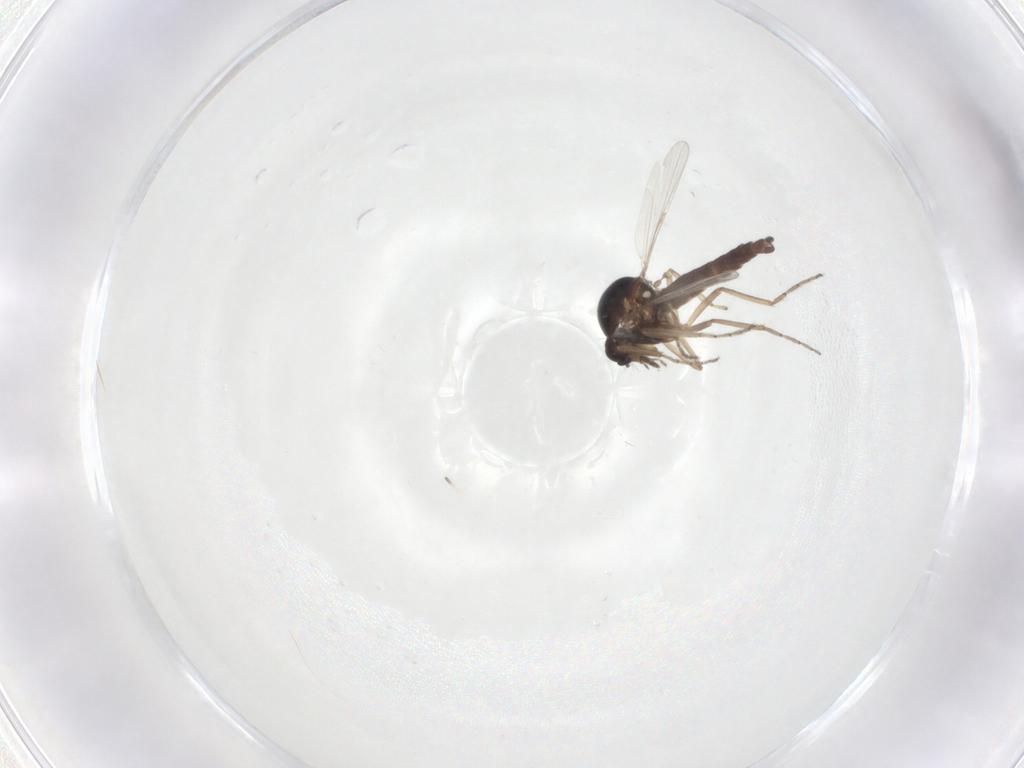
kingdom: Animalia
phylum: Arthropoda
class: Insecta
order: Diptera
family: Ceratopogonidae
